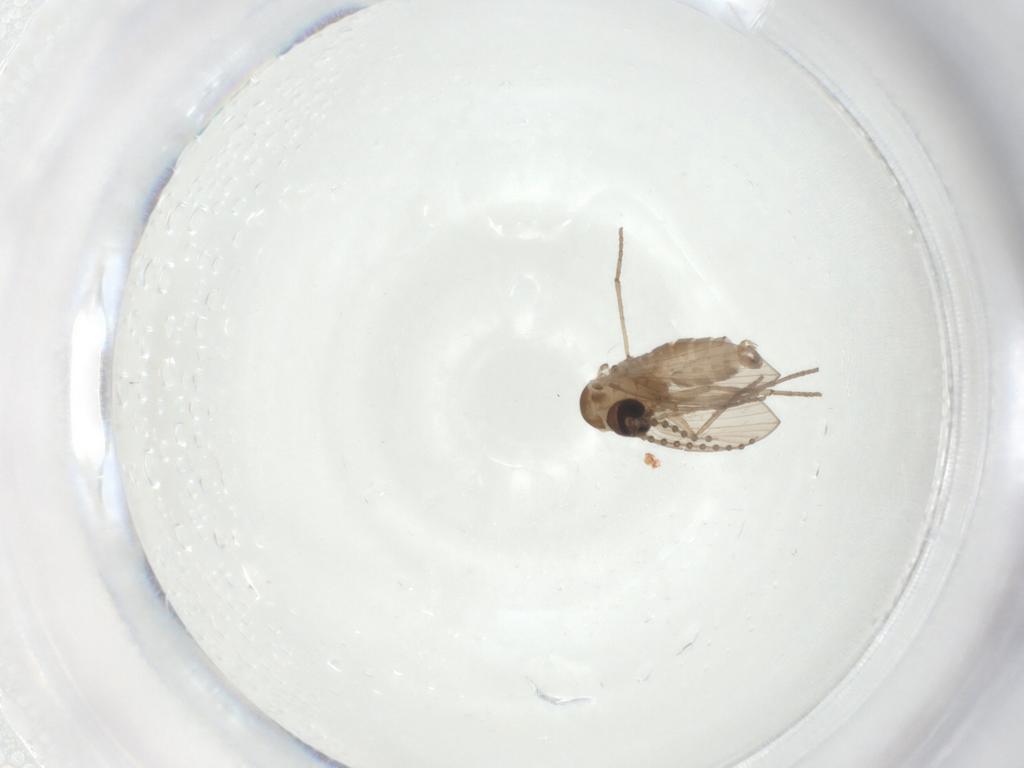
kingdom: Animalia
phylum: Arthropoda
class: Insecta
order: Diptera
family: Psychodidae
